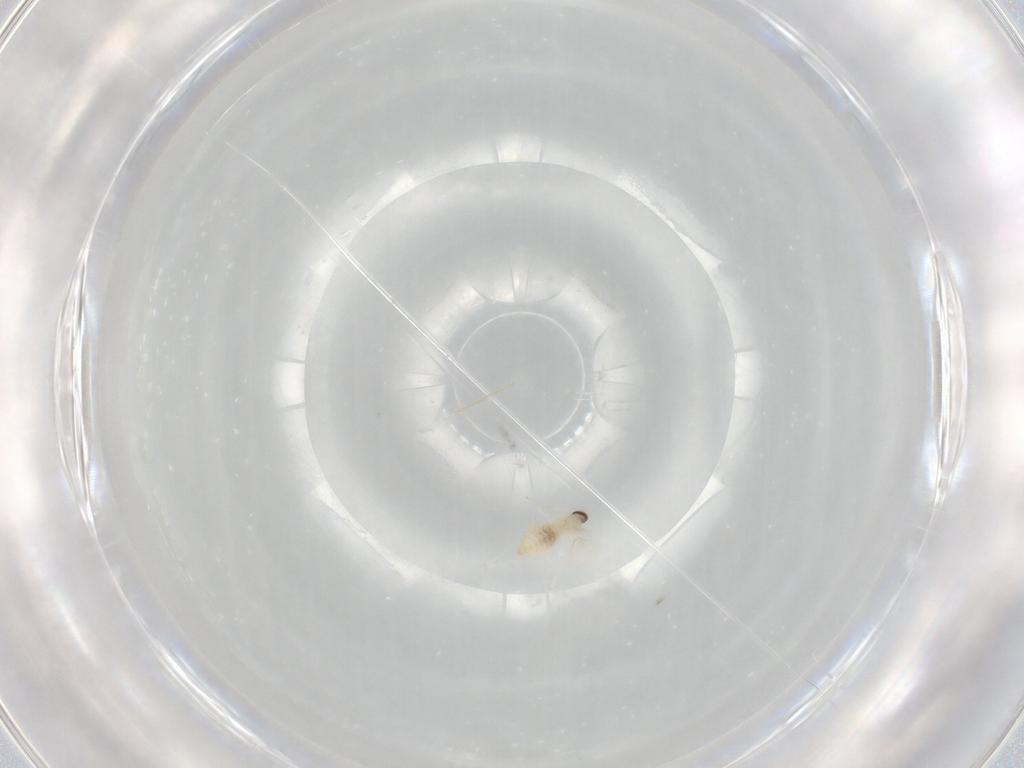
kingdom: Animalia
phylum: Arthropoda
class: Insecta
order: Diptera
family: Cecidomyiidae
